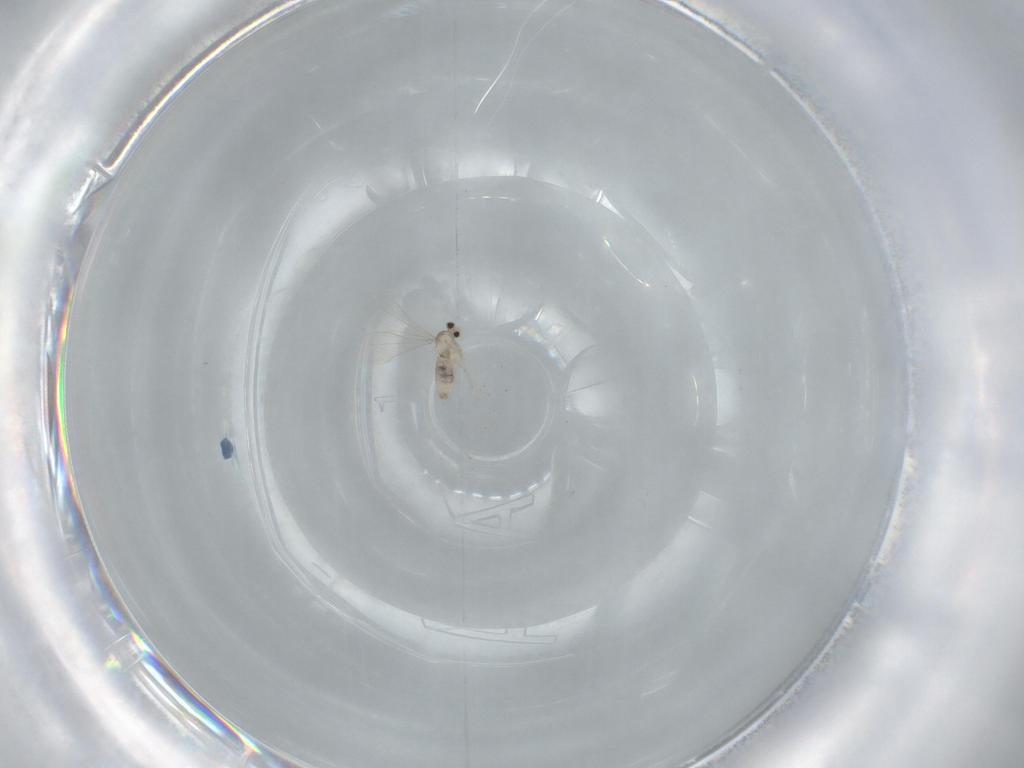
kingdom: Animalia
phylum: Arthropoda
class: Insecta
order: Diptera
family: Cecidomyiidae
